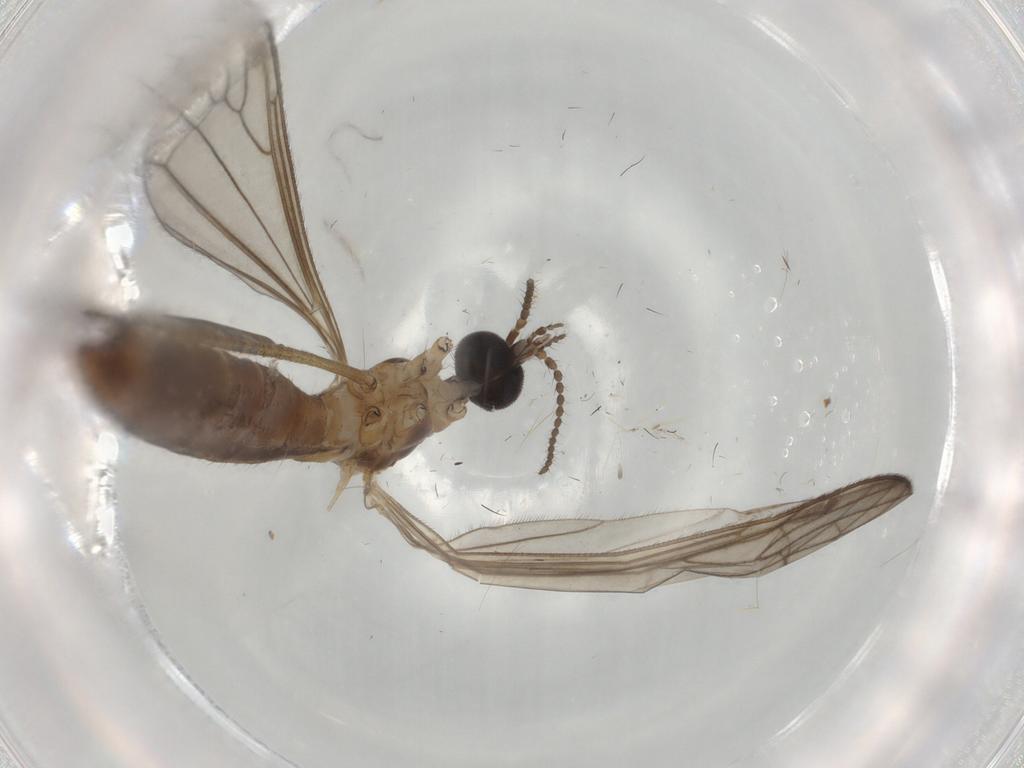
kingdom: Animalia
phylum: Arthropoda
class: Insecta
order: Diptera
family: Limoniidae
